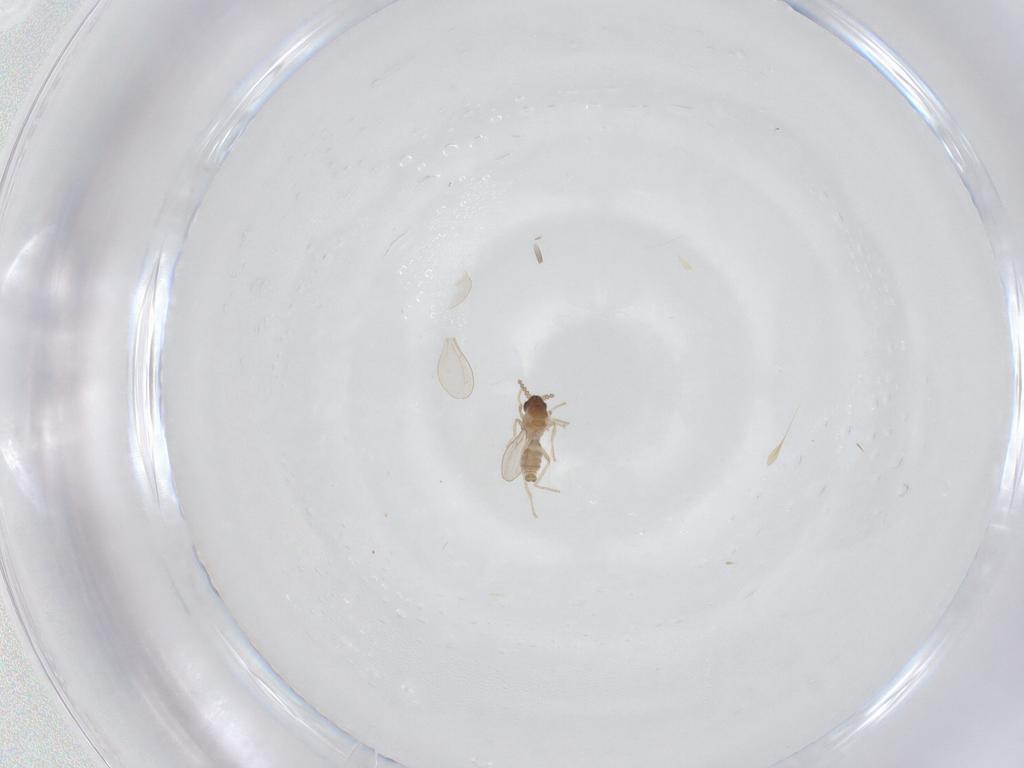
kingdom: Animalia
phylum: Arthropoda
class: Insecta
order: Diptera
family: Cecidomyiidae
